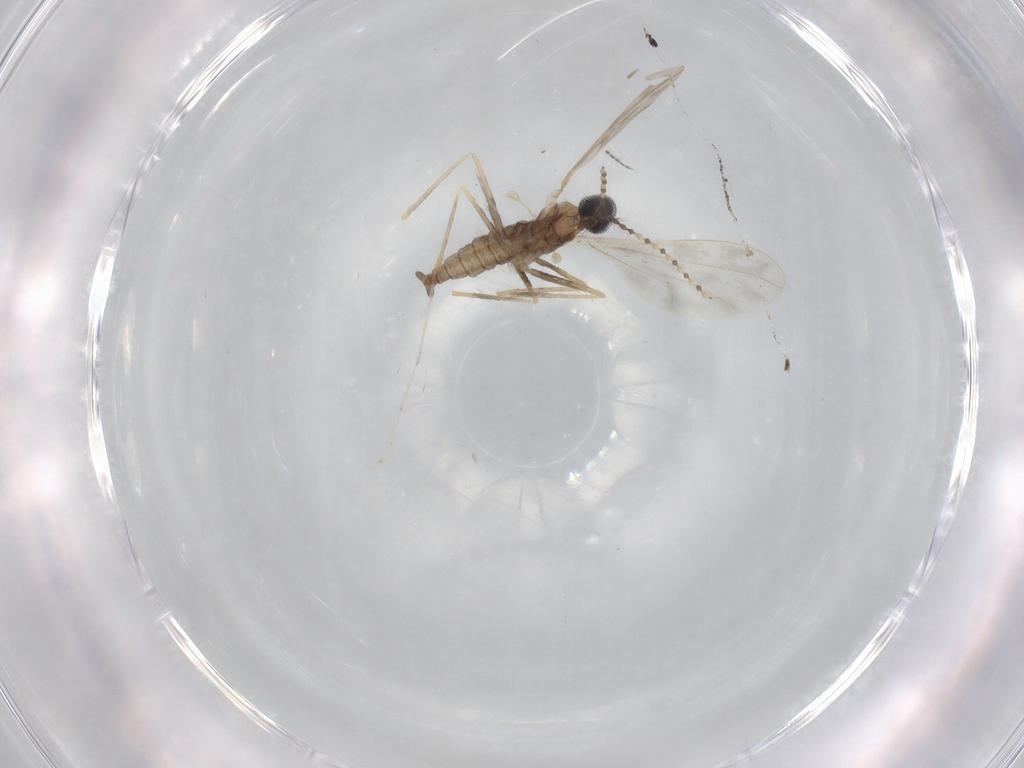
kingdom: Animalia
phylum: Arthropoda
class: Insecta
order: Diptera
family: Cecidomyiidae
